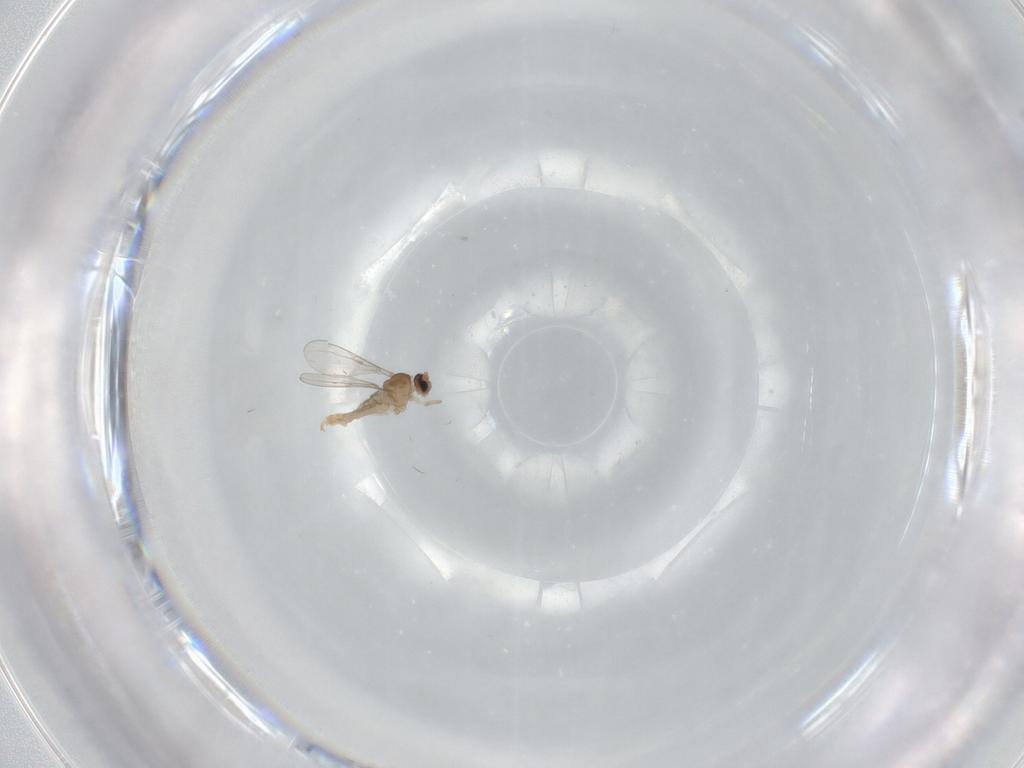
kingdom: Animalia
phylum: Arthropoda
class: Insecta
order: Diptera
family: Cecidomyiidae
